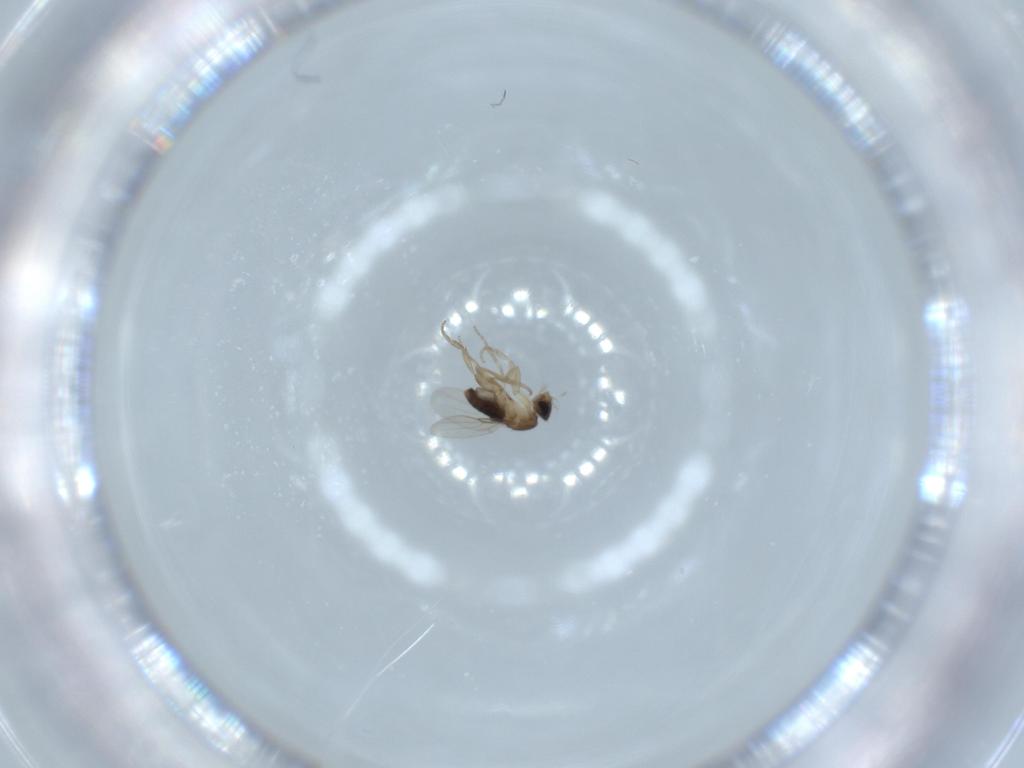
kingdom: Animalia
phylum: Arthropoda
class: Insecta
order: Diptera
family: Phoridae
